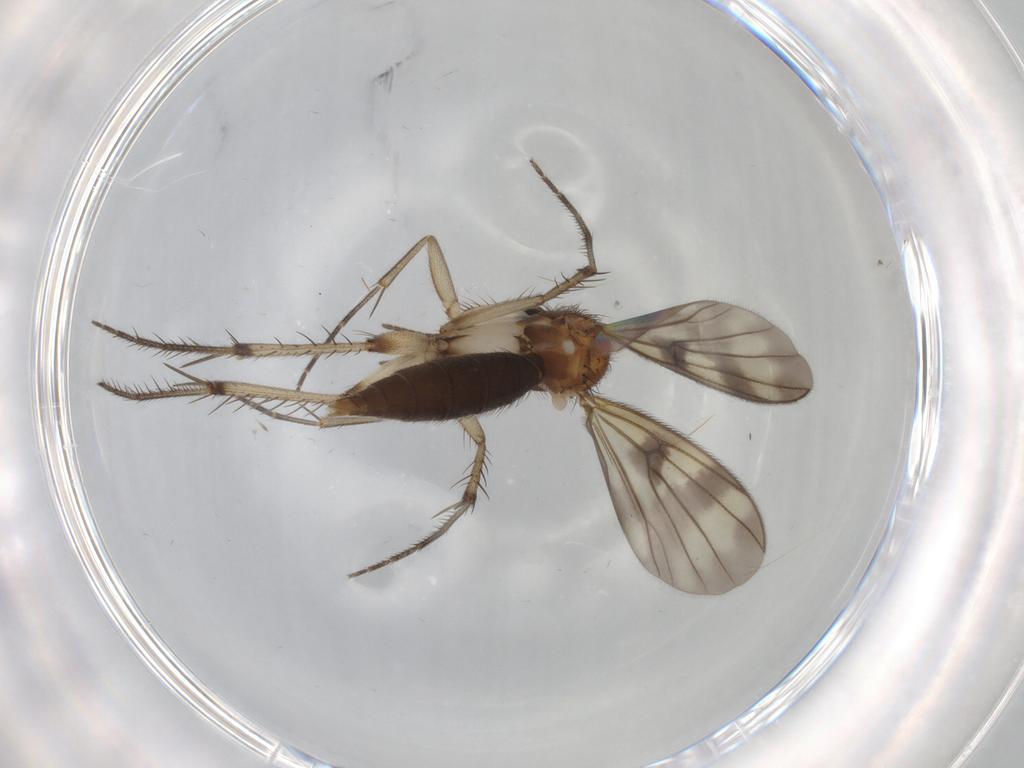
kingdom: Animalia
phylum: Arthropoda
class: Insecta
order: Diptera
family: Mycetophilidae
